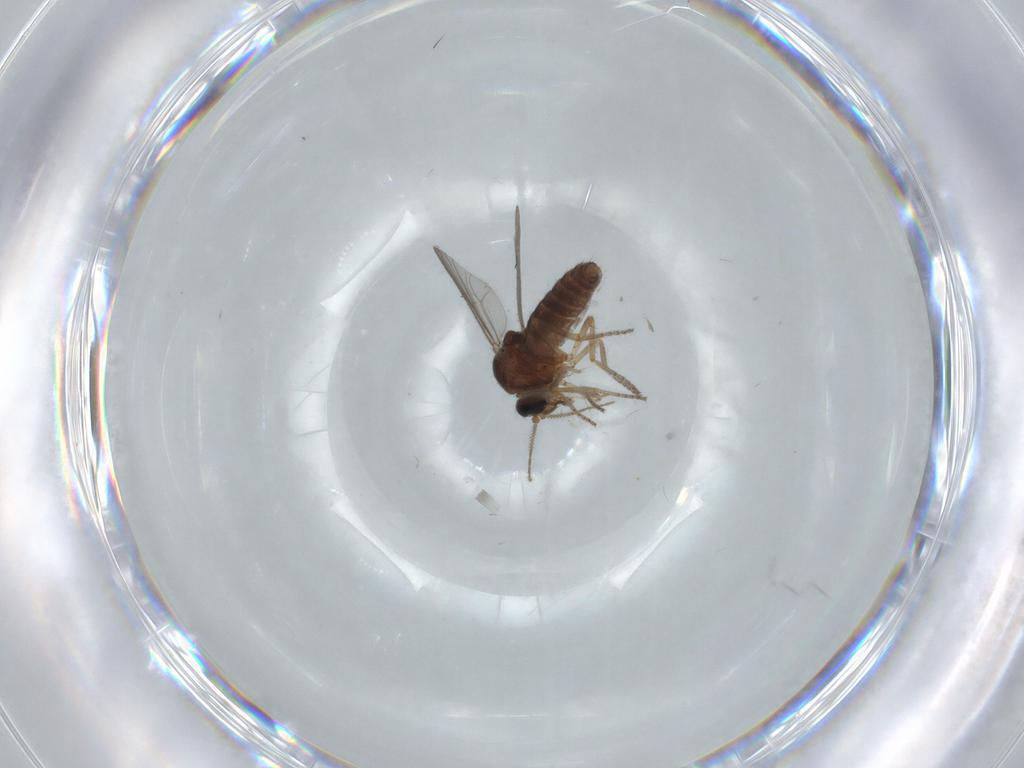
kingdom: Animalia
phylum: Arthropoda
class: Insecta
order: Diptera
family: Ceratopogonidae
